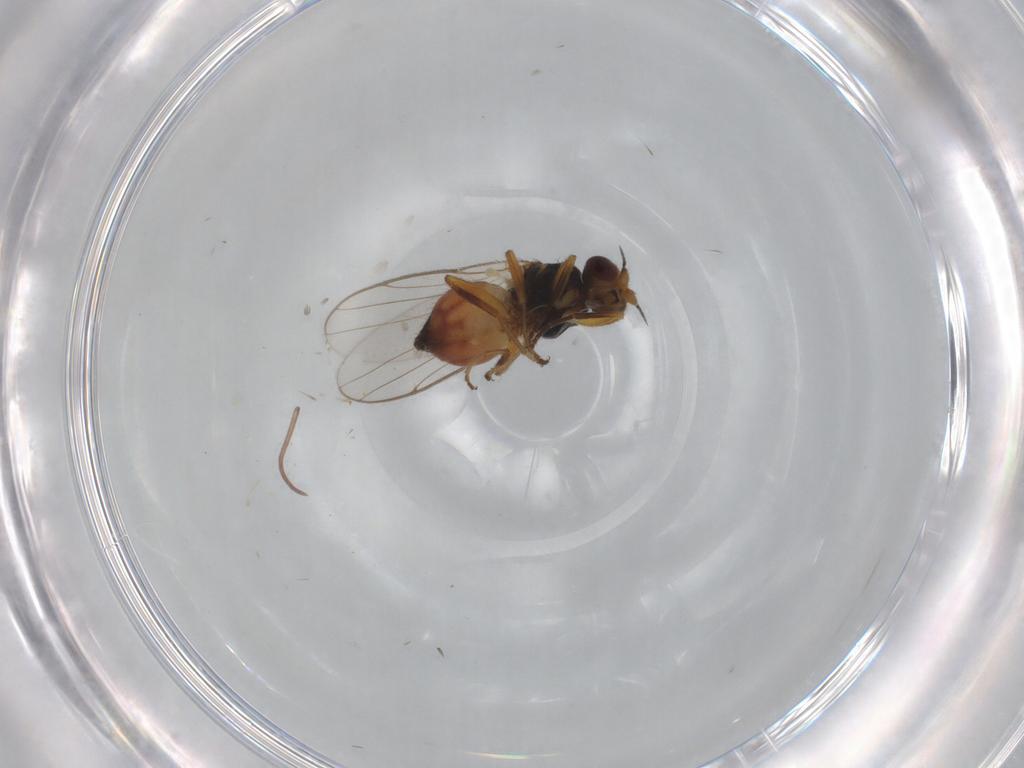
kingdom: Animalia
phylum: Arthropoda
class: Insecta
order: Diptera
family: Chloropidae
